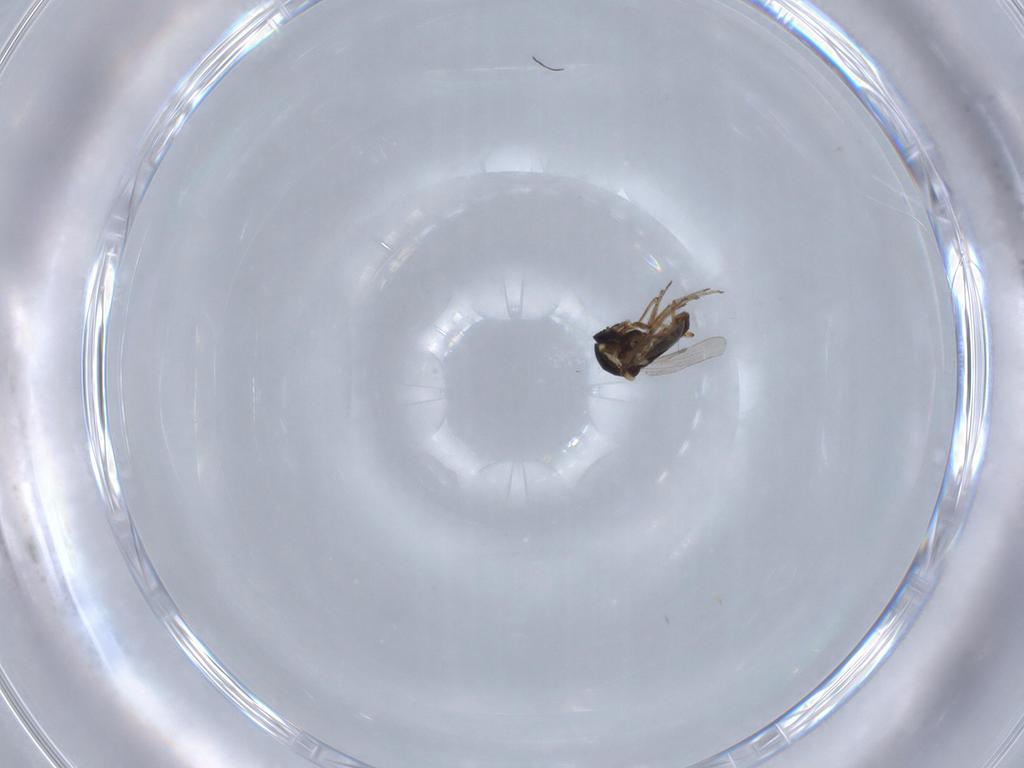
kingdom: Animalia
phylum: Arthropoda
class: Insecta
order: Diptera
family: Ceratopogonidae
